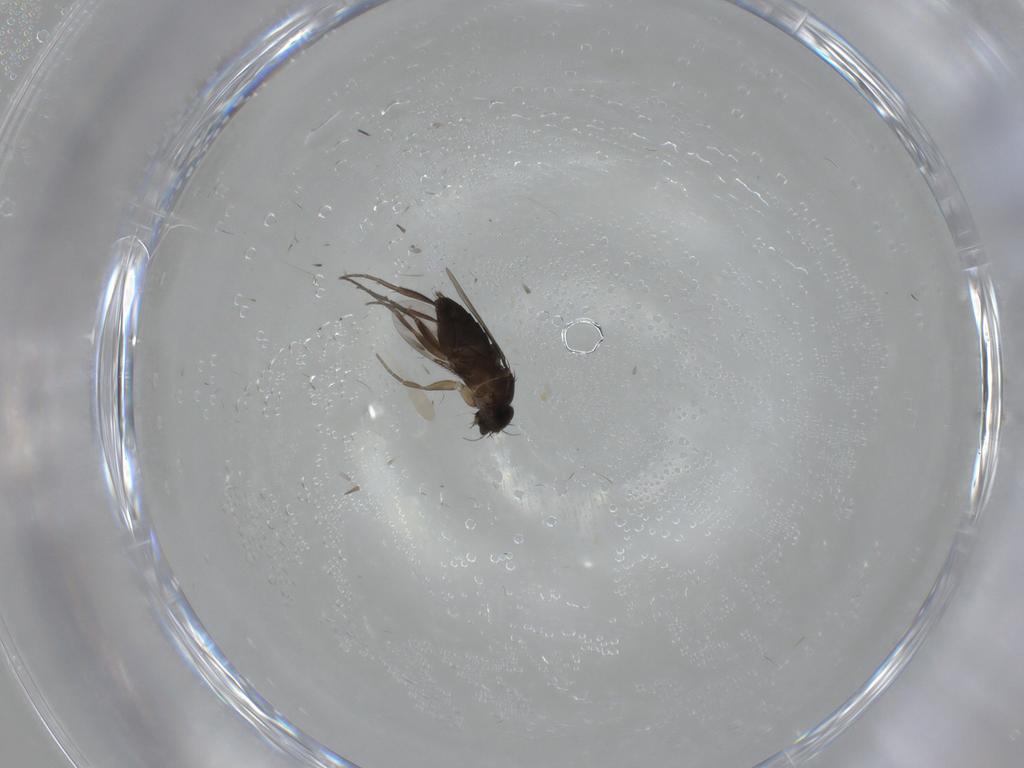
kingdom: Animalia
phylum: Arthropoda
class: Insecta
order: Diptera
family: Phoridae
